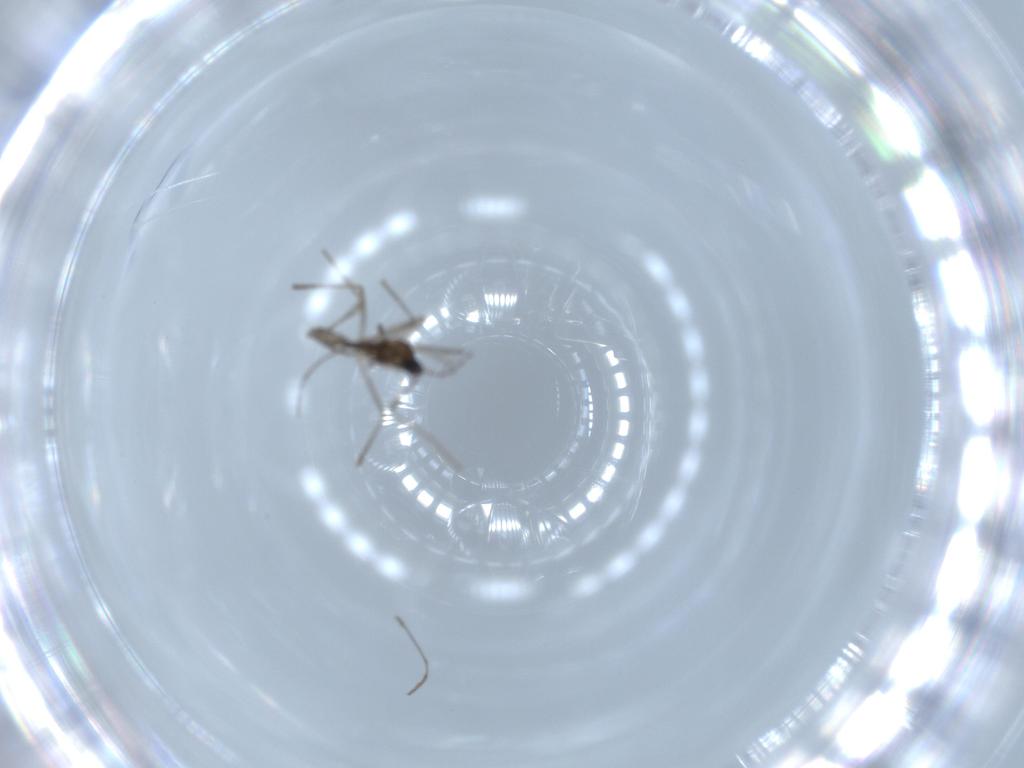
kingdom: Animalia
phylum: Arthropoda
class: Insecta
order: Diptera
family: Cecidomyiidae
